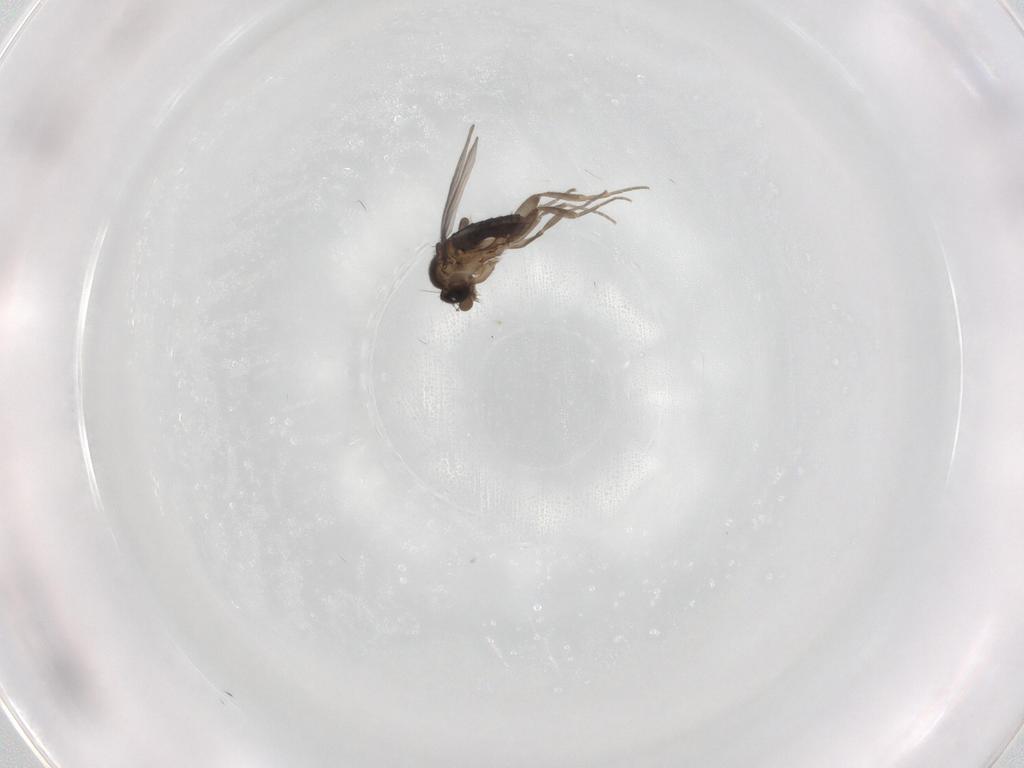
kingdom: Animalia
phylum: Arthropoda
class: Insecta
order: Diptera
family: Phoridae
